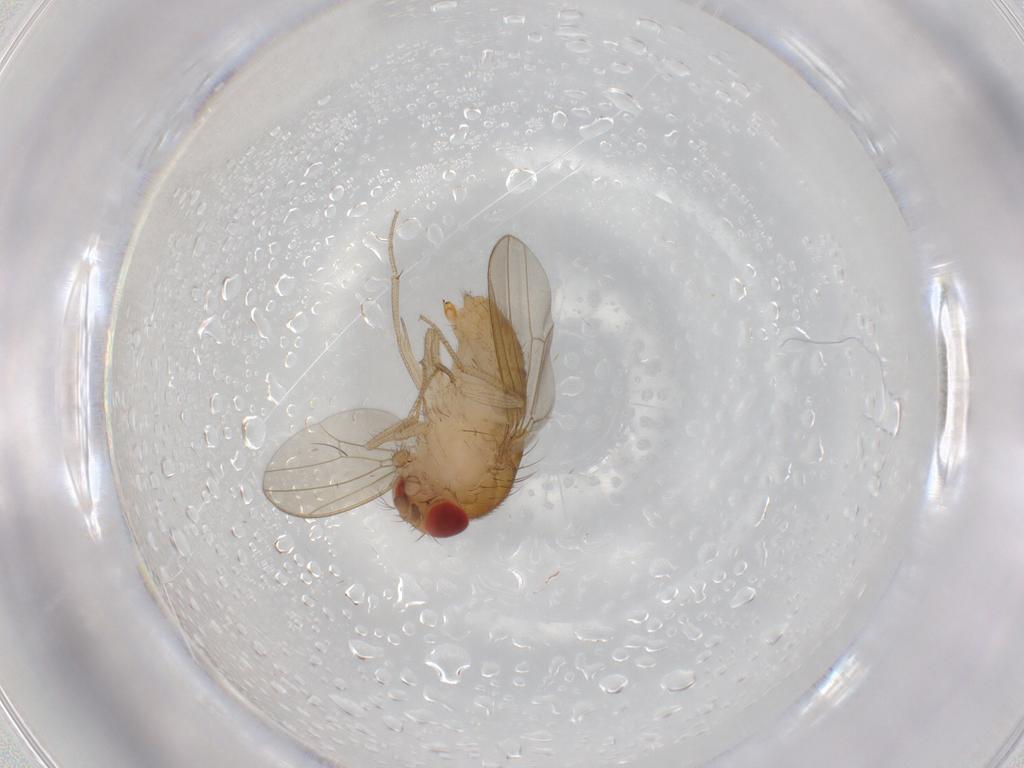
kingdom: Animalia
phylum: Arthropoda
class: Insecta
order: Diptera
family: Drosophilidae
